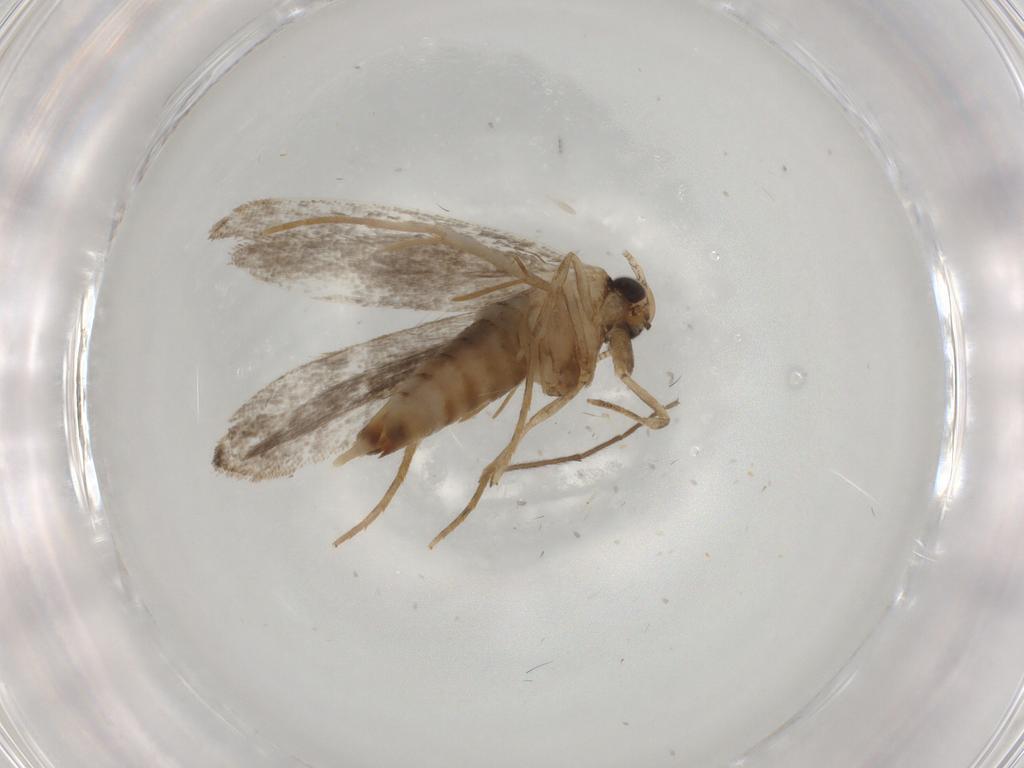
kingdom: Animalia
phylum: Arthropoda
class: Insecta
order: Lepidoptera
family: Tineidae
